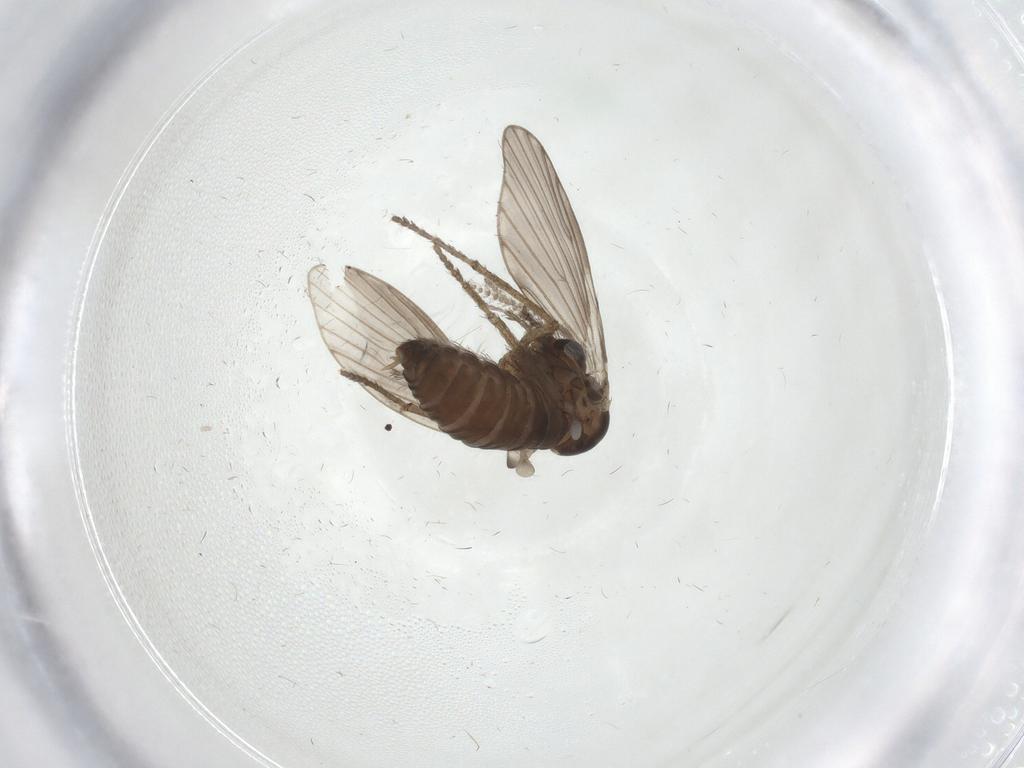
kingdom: Animalia
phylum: Arthropoda
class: Insecta
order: Diptera
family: Psychodidae
